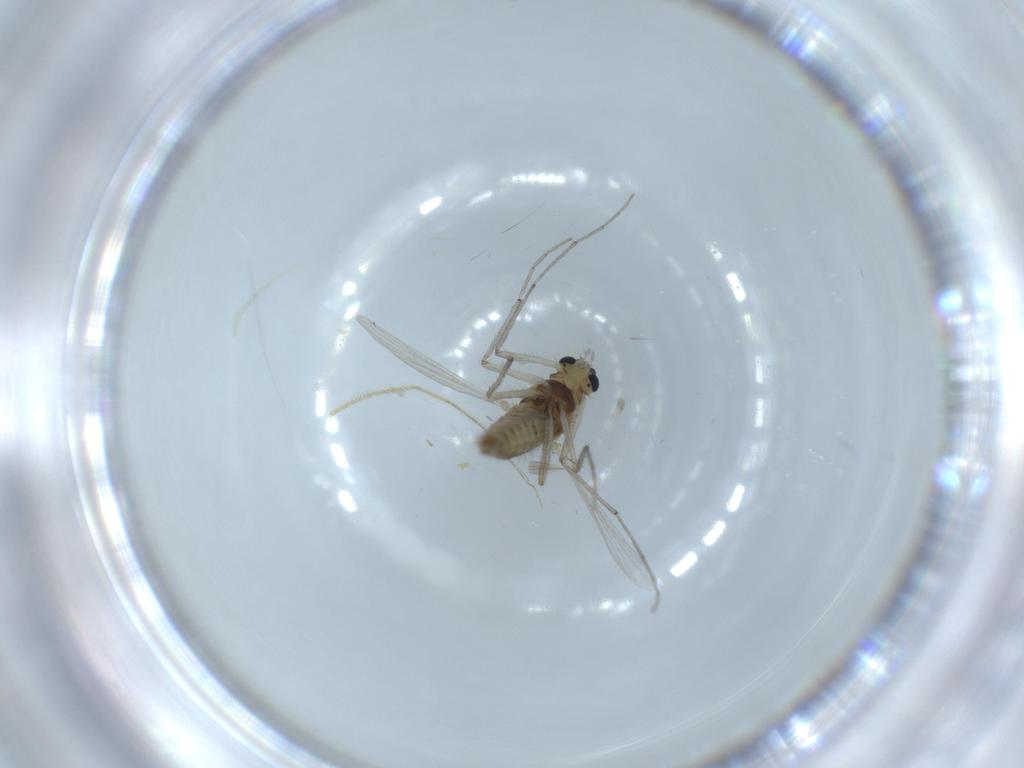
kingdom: Animalia
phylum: Arthropoda
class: Insecta
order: Diptera
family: Chironomidae
